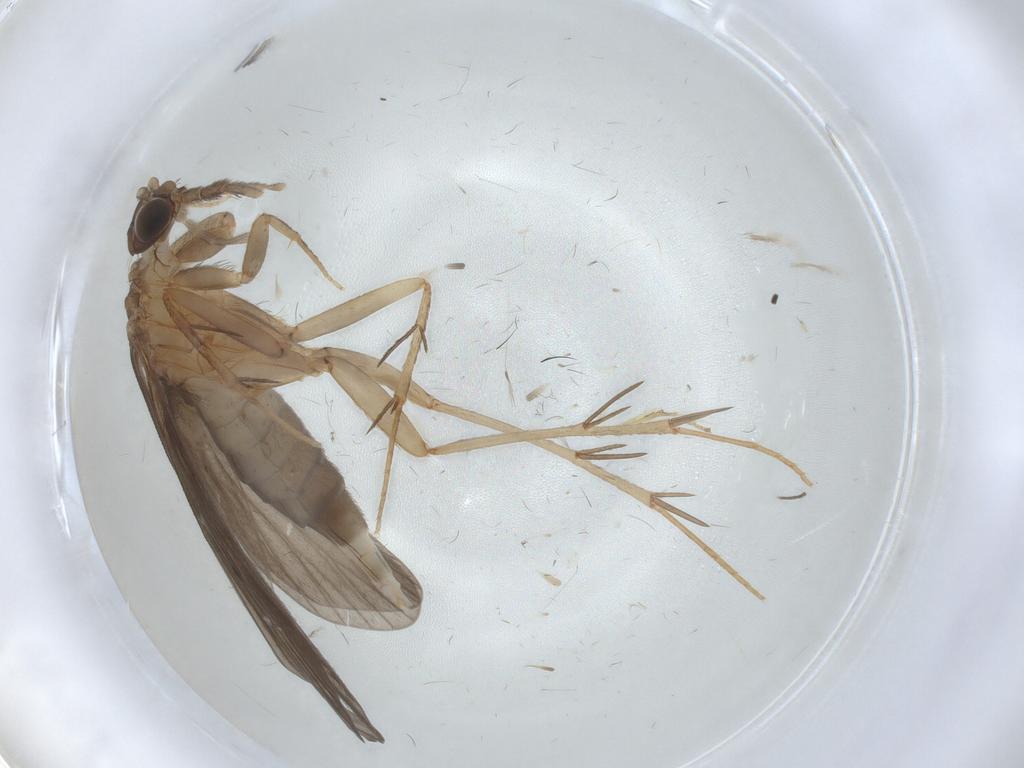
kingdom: Animalia
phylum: Arthropoda
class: Insecta
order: Trichoptera
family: Philopotamidae
